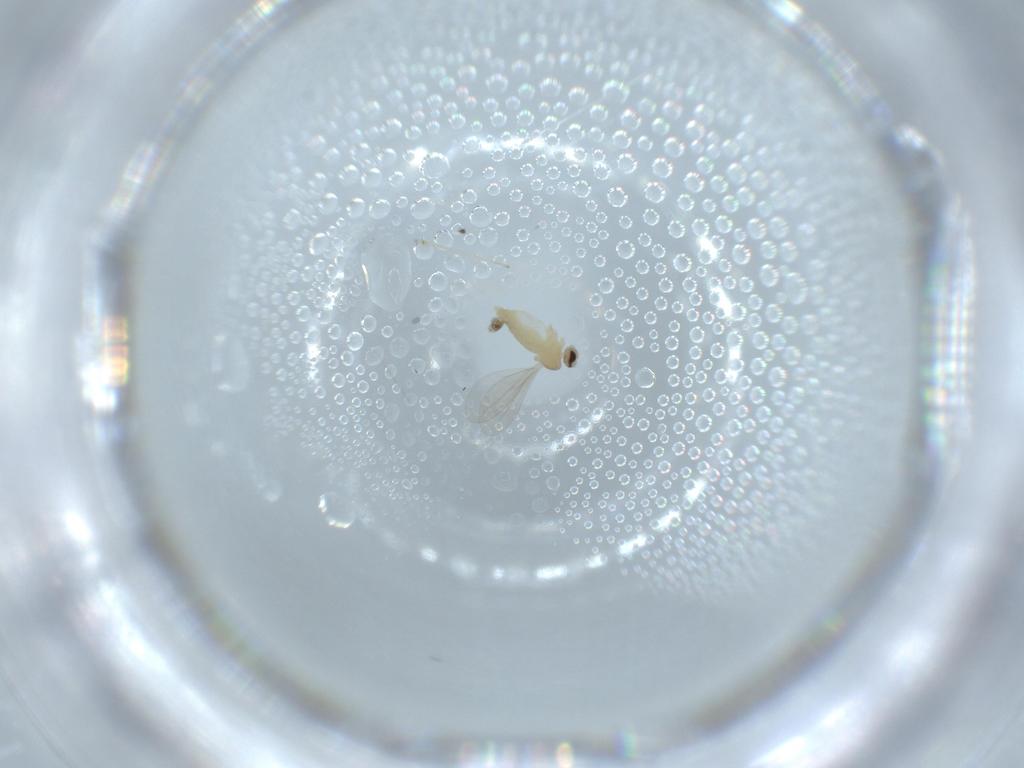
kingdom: Animalia
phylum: Arthropoda
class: Insecta
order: Diptera
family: Cecidomyiidae
